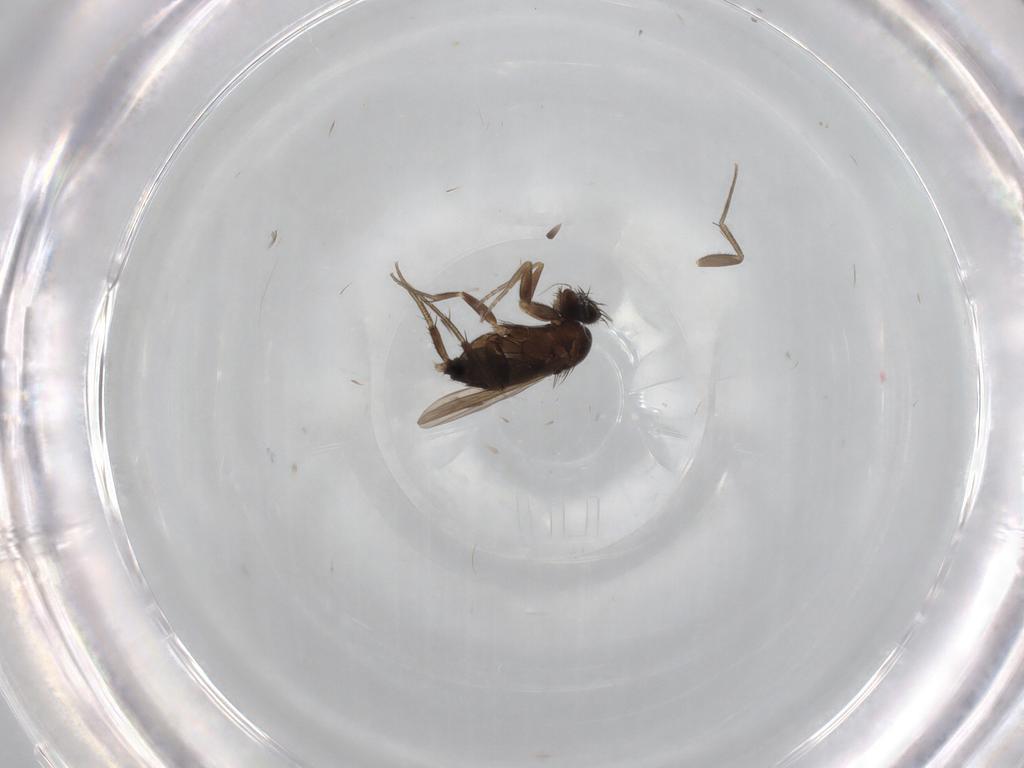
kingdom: Animalia
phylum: Arthropoda
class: Insecta
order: Diptera
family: Phoridae
